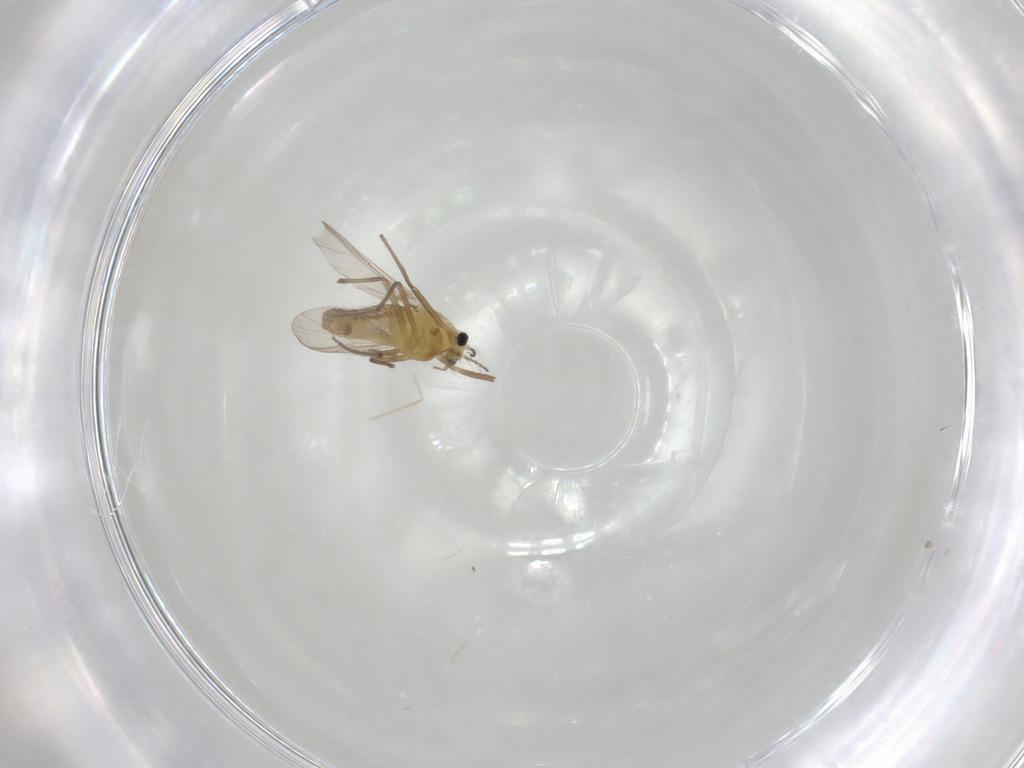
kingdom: Animalia
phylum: Arthropoda
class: Insecta
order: Diptera
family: Chironomidae
